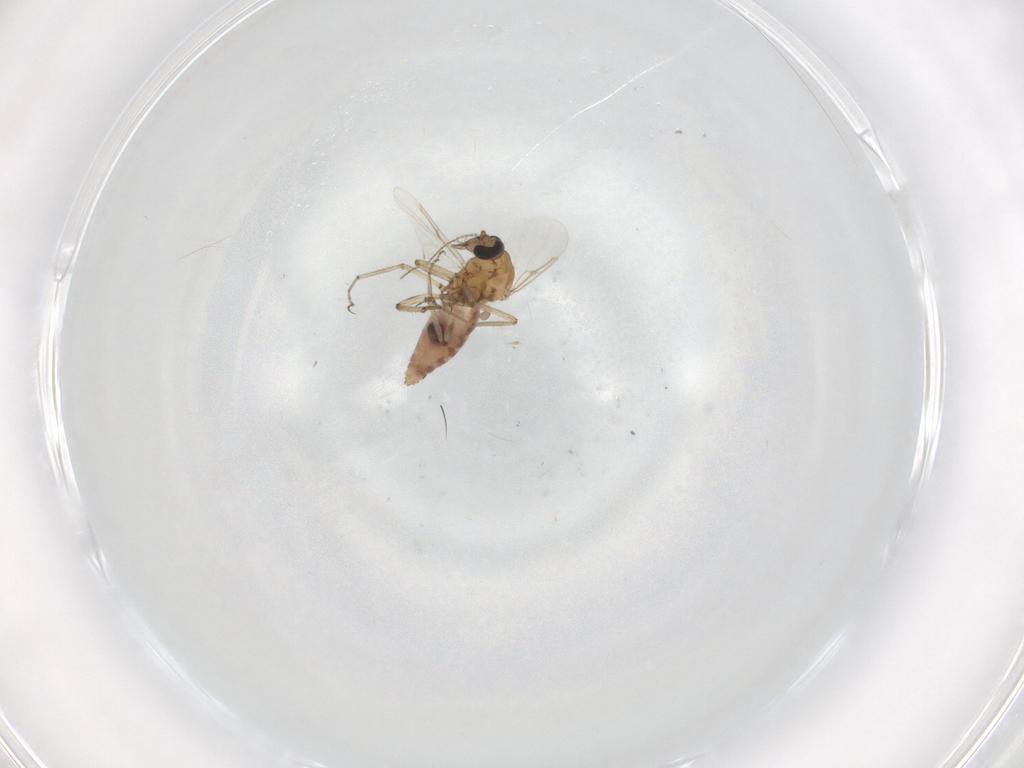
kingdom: Animalia
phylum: Arthropoda
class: Insecta
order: Diptera
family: Ceratopogonidae
